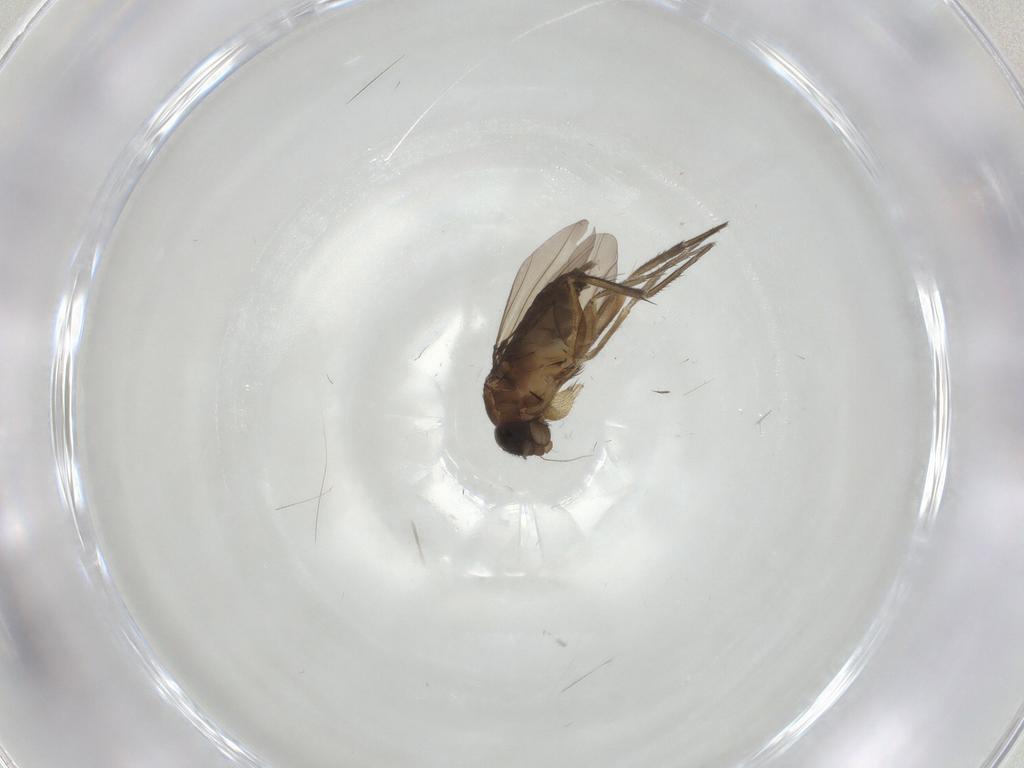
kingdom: Animalia
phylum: Arthropoda
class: Insecta
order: Diptera
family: Phoridae
